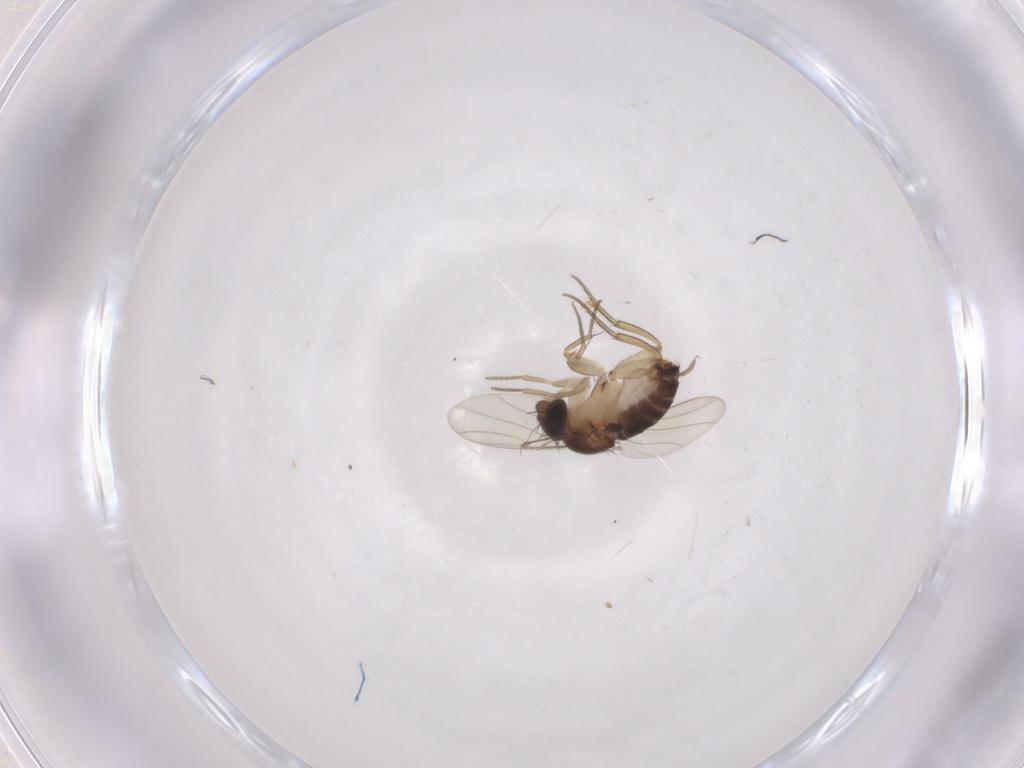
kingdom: Animalia
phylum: Arthropoda
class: Insecta
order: Diptera
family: Phoridae
